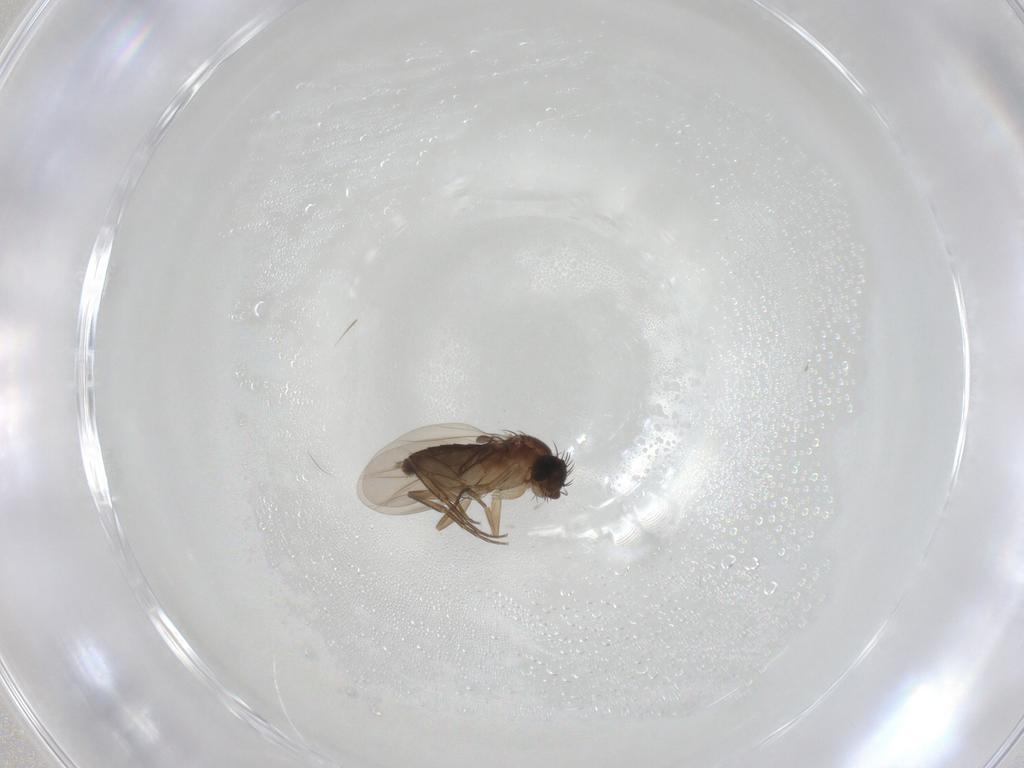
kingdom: Animalia
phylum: Arthropoda
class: Insecta
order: Diptera
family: Phoridae
